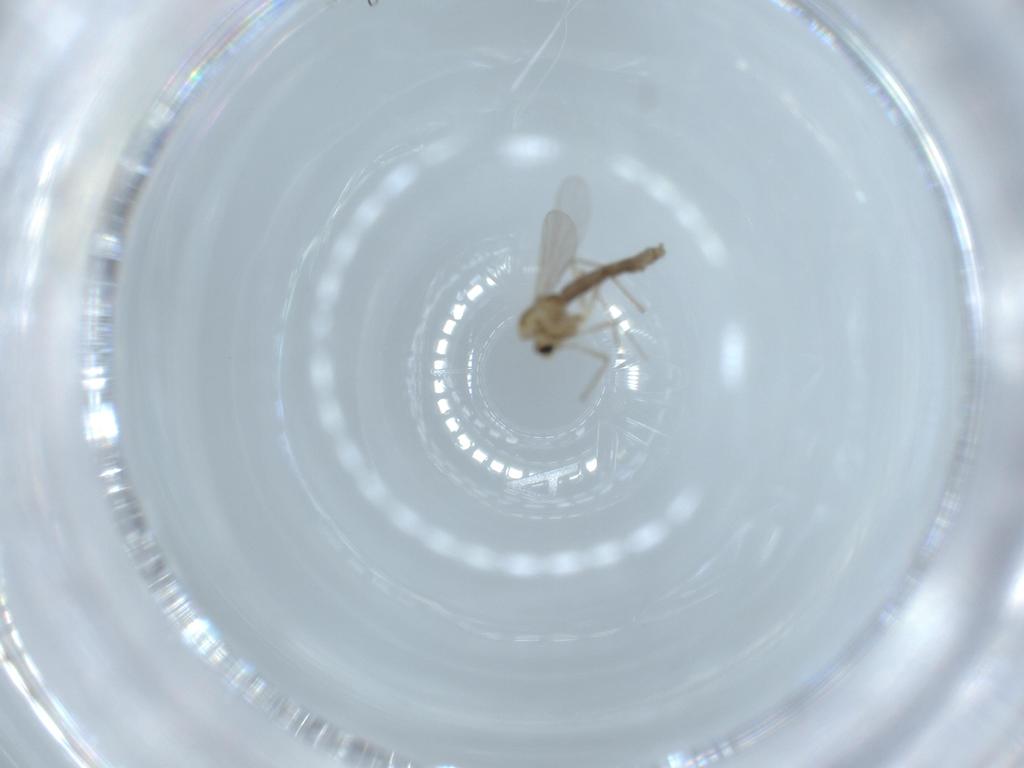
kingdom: Animalia
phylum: Arthropoda
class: Insecta
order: Diptera
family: Chironomidae
